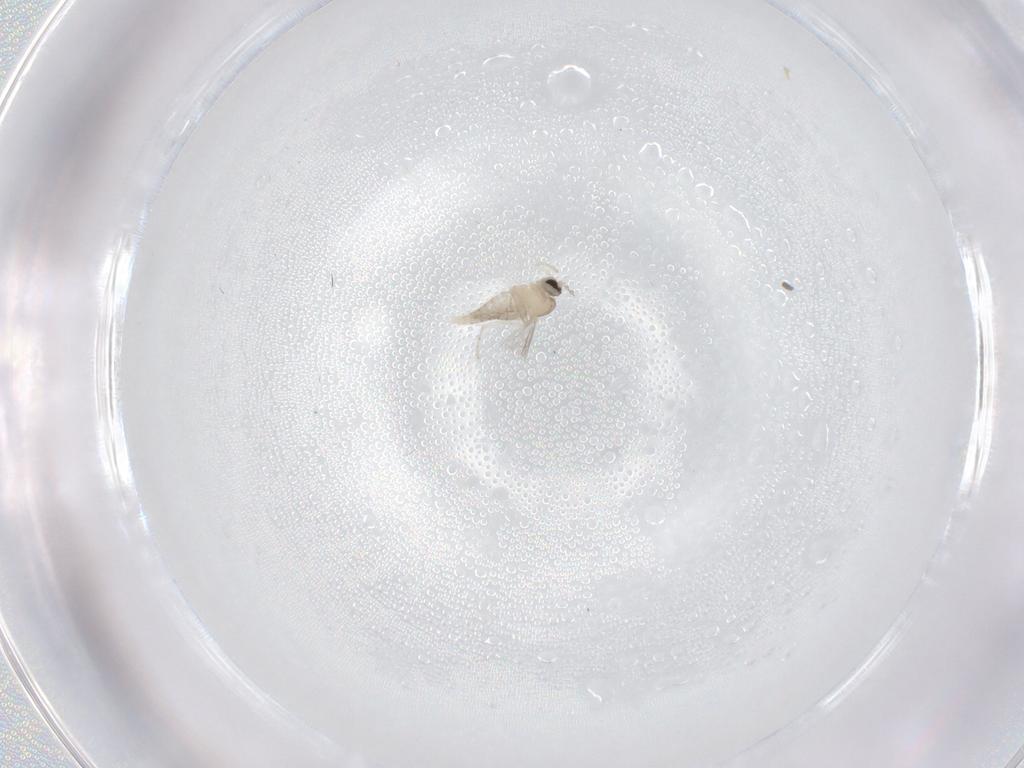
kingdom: Animalia
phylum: Arthropoda
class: Insecta
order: Diptera
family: Cecidomyiidae
